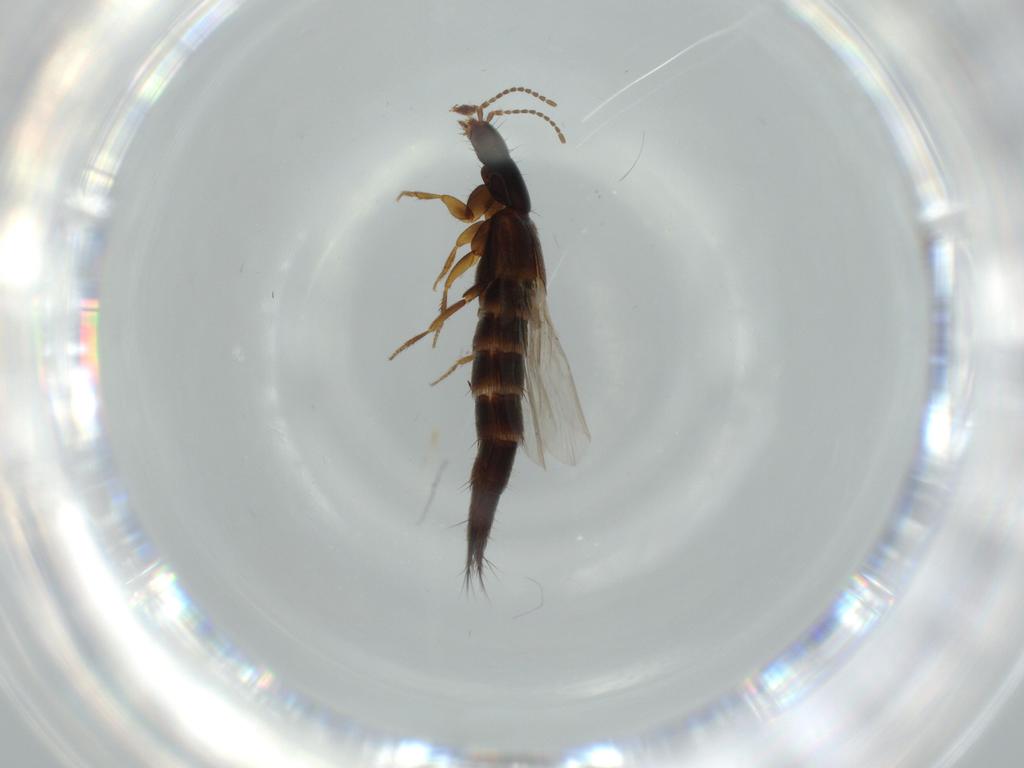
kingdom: Animalia
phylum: Arthropoda
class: Insecta
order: Coleoptera
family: Staphylinidae
